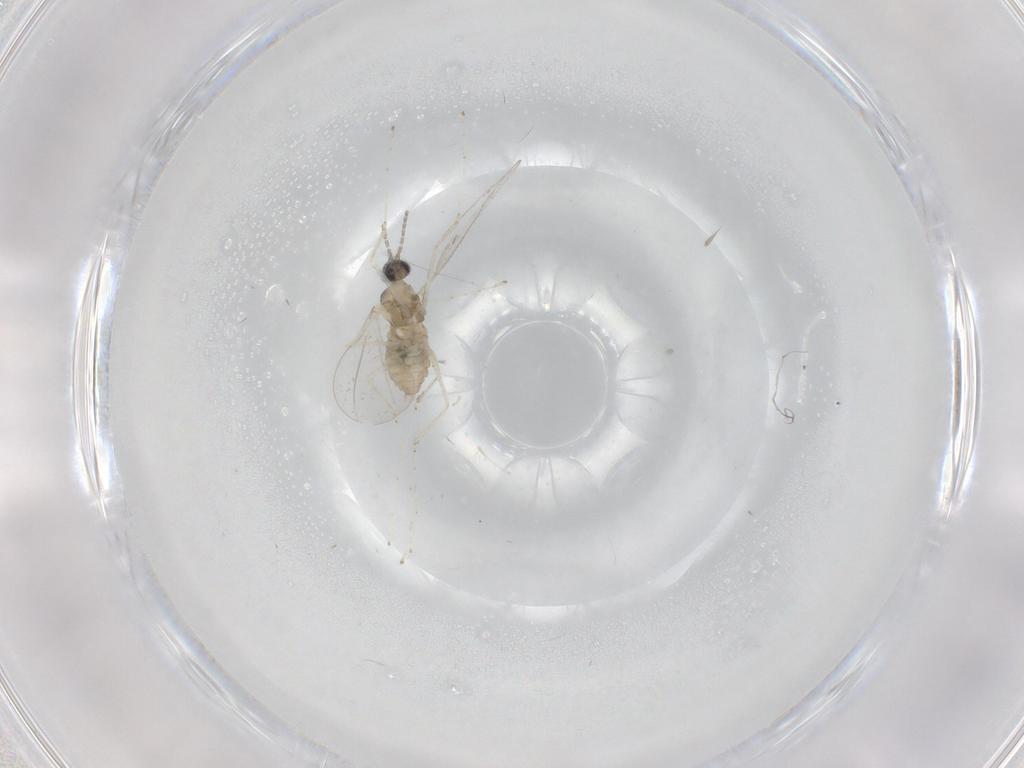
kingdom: Animalia
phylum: Arthropoda
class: Insecta
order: Diptera
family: Cecidomyiidae
